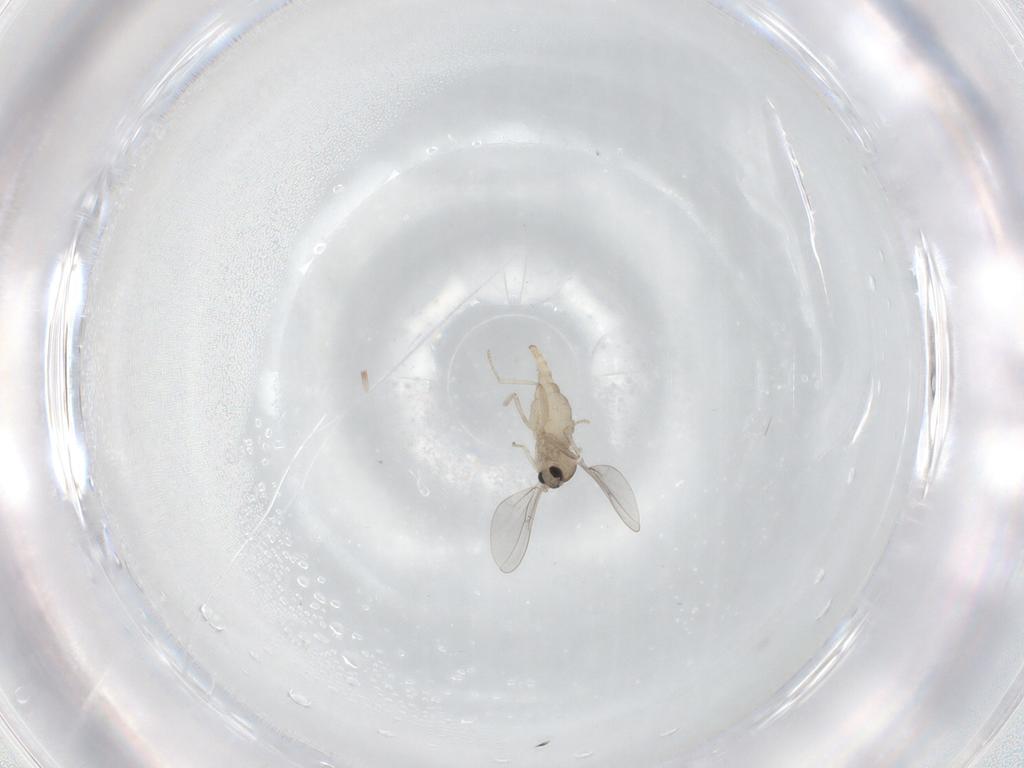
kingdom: Animalia
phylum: Arthropoda
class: Insecta
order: Diptera
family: Cecidomyiidae
